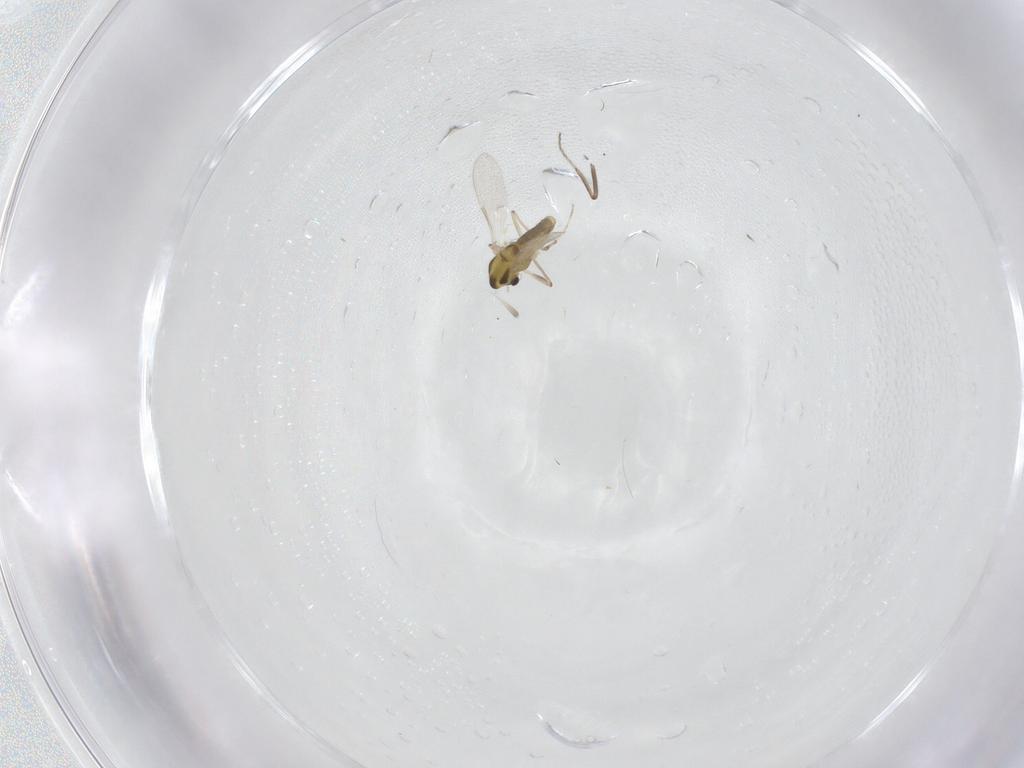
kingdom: Animalia
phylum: Arthropoda
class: Insecta
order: Diptera
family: Chironomidae
